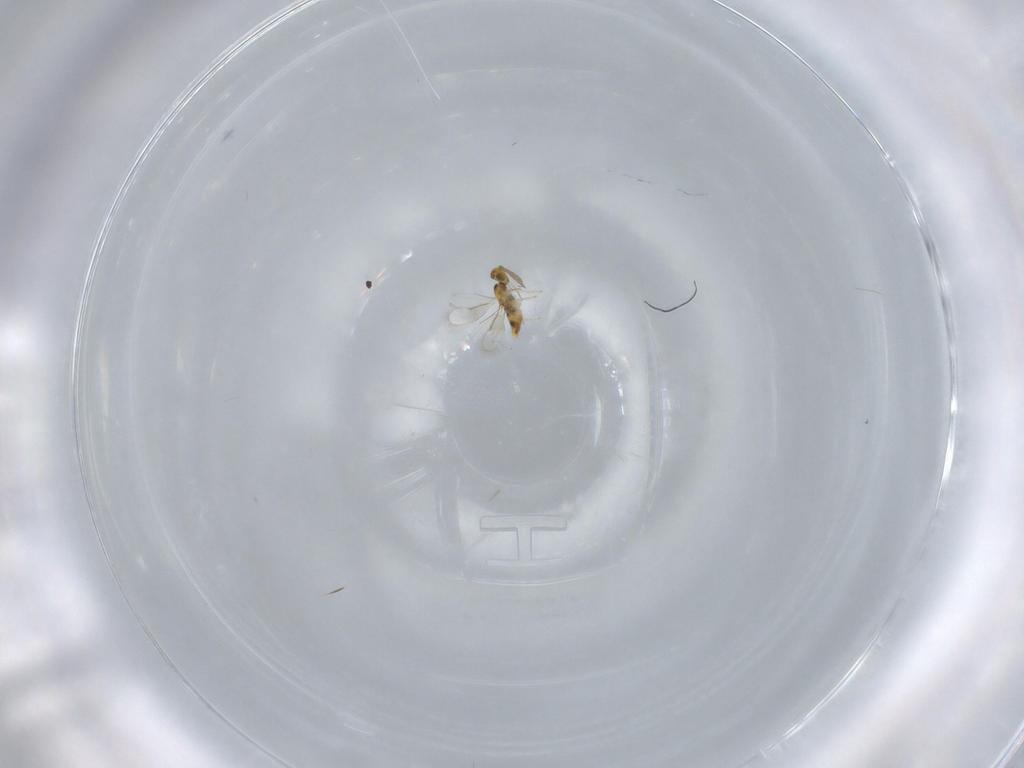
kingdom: Animalia
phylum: Arthropoda
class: Insecta
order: Hymenoptera
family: Aphelinidae
